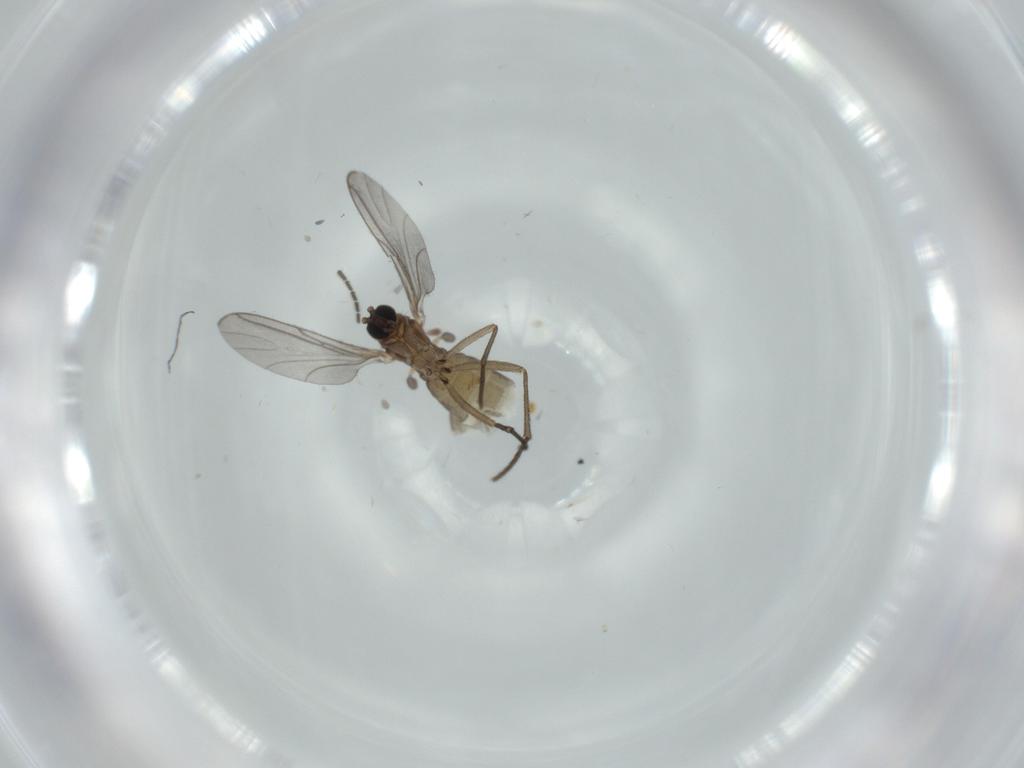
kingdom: Animalia
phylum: Arthropoda
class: Insecta
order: Diptera
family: Sciaridae
